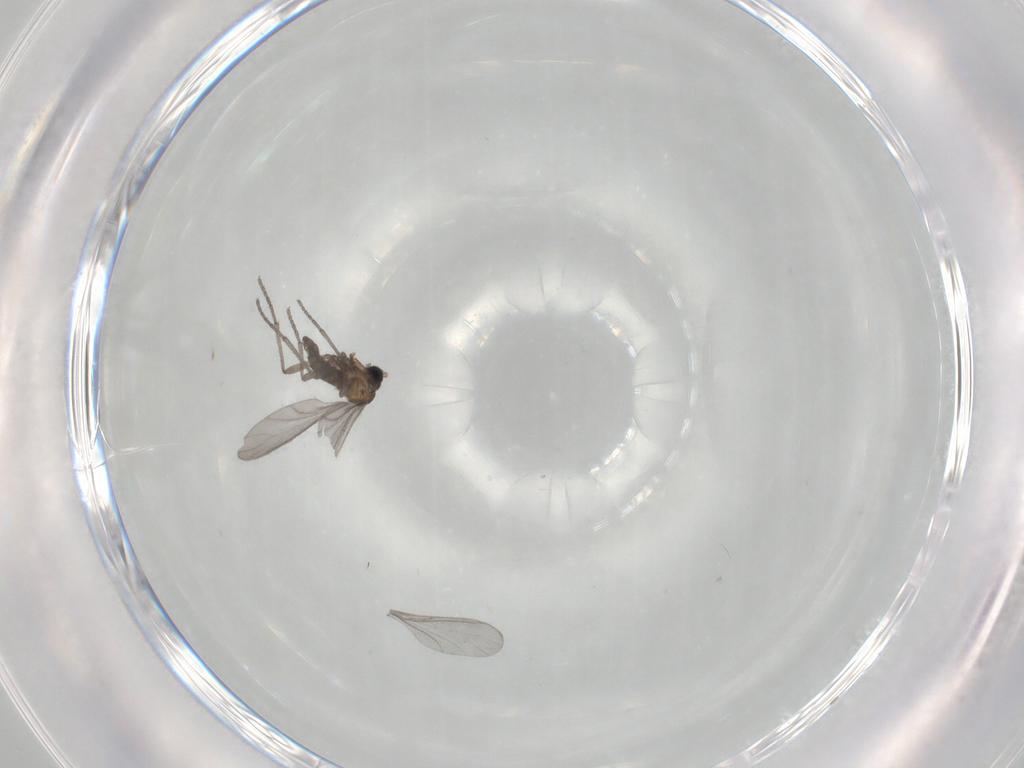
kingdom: Animalia
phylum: Arthropoda
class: Insecta
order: Diptera
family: Sciaridae
